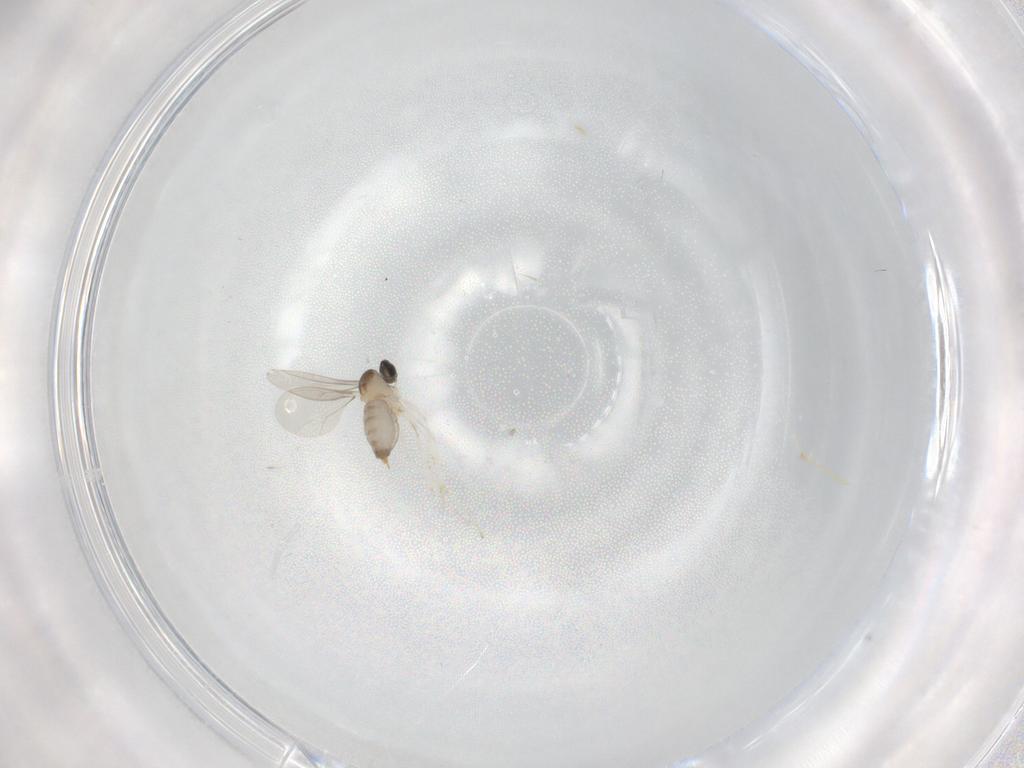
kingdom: Animalia
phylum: Arthropoda
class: Insecta
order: Diptera
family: Cecidomyiidae
